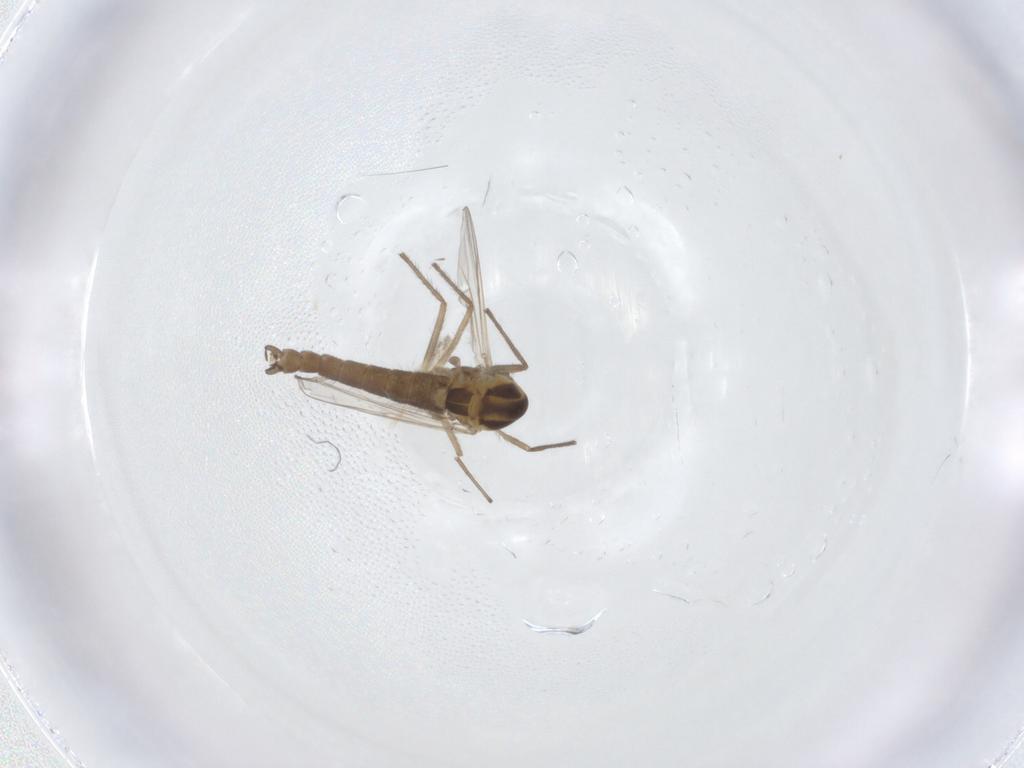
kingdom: Animalia
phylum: Arthropoda
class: Insecta
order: Diptera
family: Chironomidae
